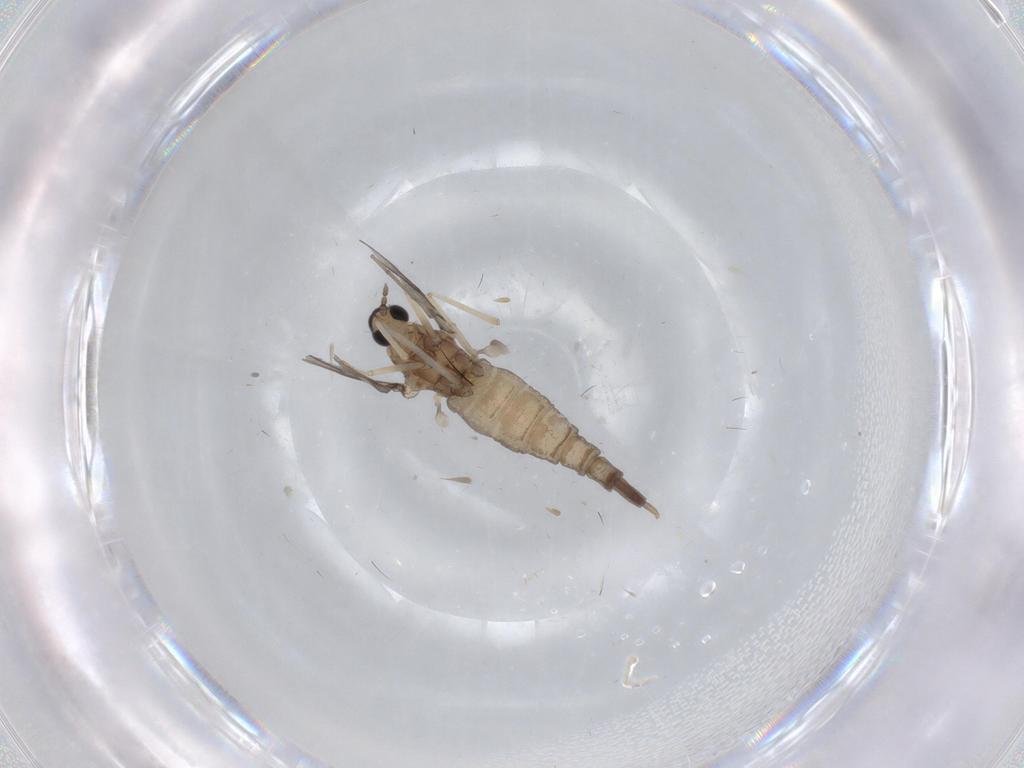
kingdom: Animalia
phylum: Arthropoda
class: Insecta
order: Diptera
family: Cecidomyiidae
